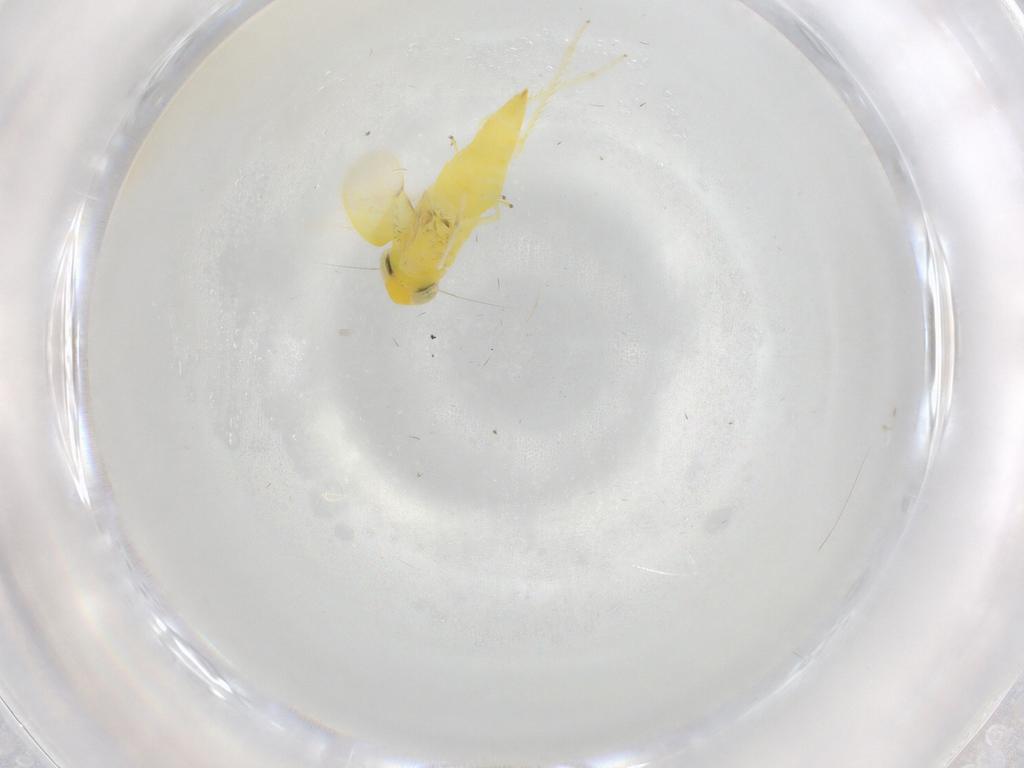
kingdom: Animalia
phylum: Arthropoda
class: Insecta
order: Hemiptera
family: Cicadellidae
